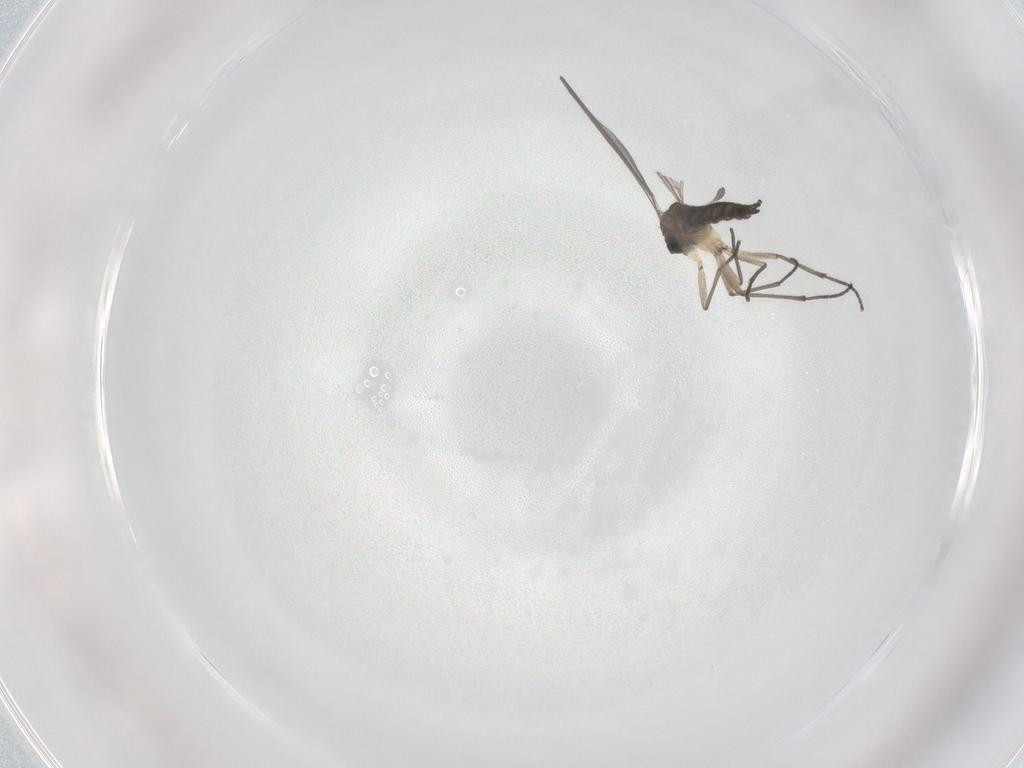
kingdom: Animalia
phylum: Arthropoda
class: Insecta
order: Diptera
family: Sciaridae
